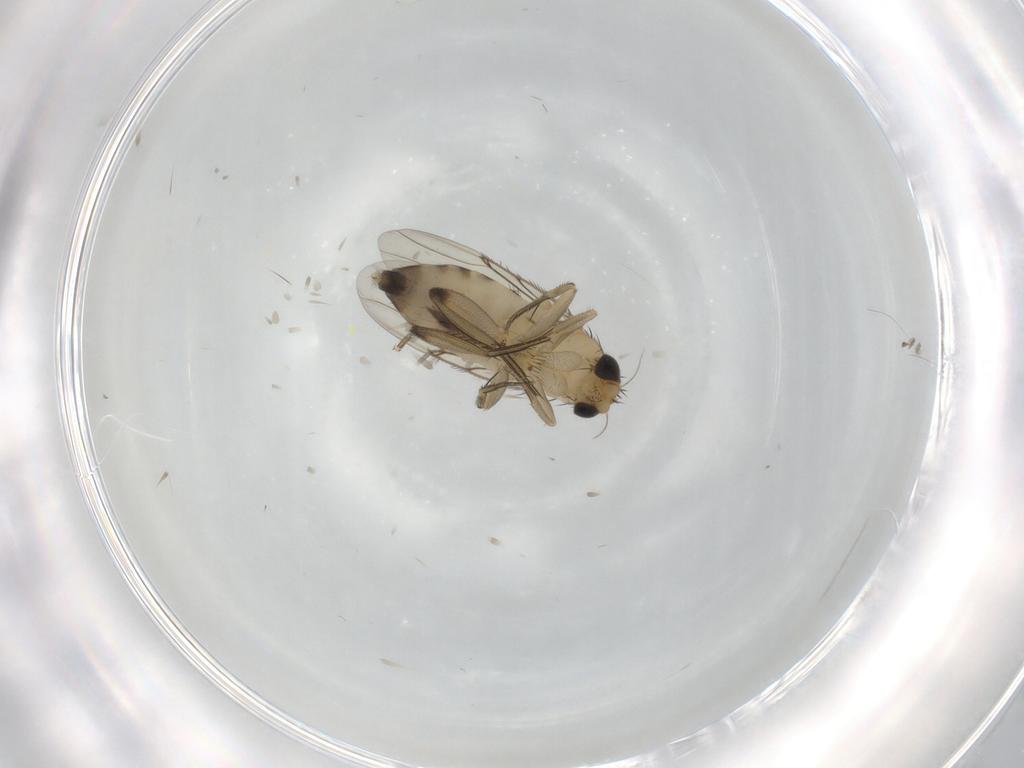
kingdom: Animalia
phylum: Arthropoda
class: Insecta
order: Diptera
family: Phoridae
